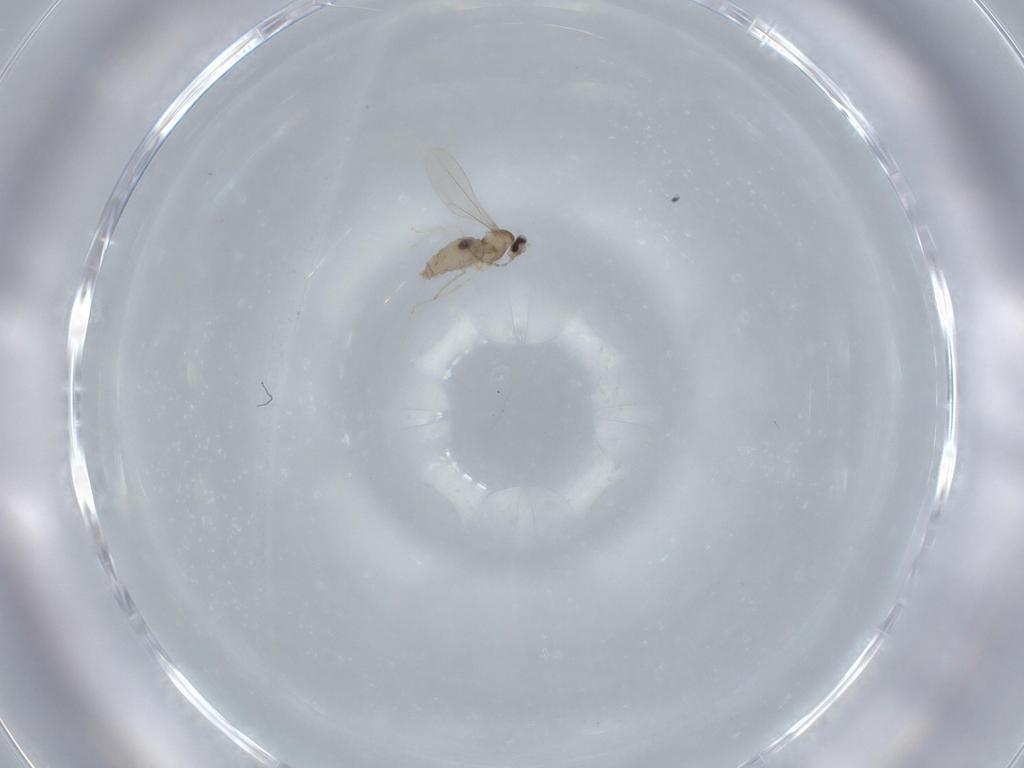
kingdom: Animalia
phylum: Arthropoda
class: Insecta
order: Diptera
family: Cecidomyiidae
